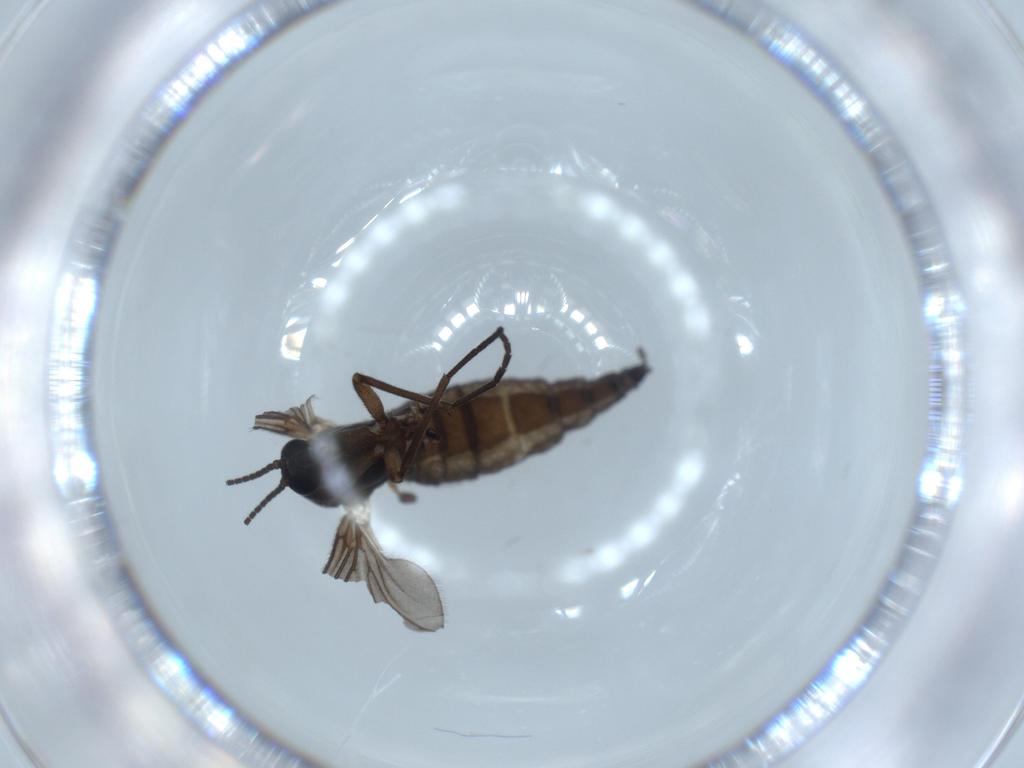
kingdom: Animalia
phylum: Arthropoda
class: Insecta
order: Diptera
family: Sciaridae
